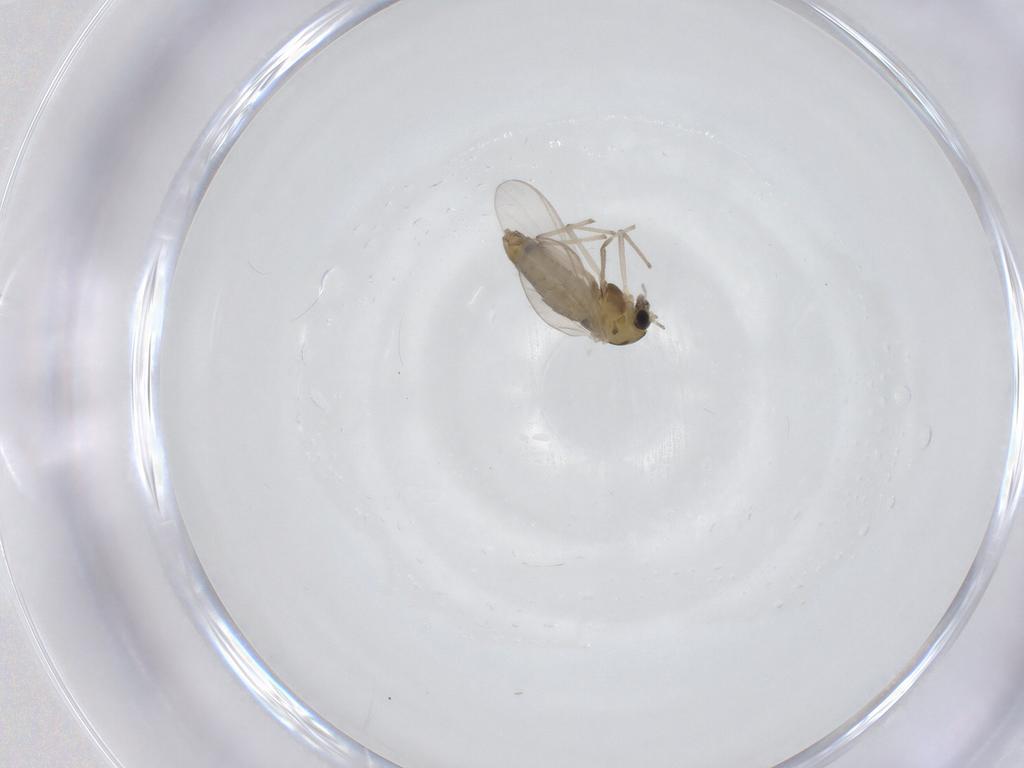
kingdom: Animalia
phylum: Arthropoda
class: Insecta
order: Diptera
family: Chironomidae
